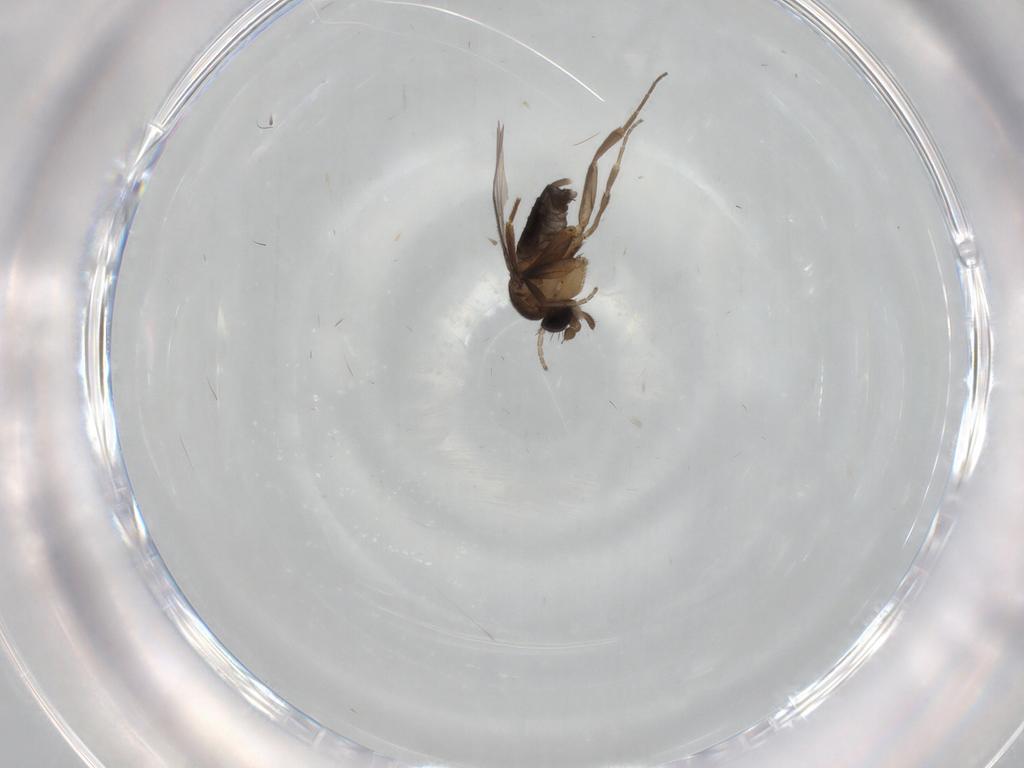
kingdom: Animalia
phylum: Arthropoda
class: Insecta
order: Diptera
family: Phoridae
